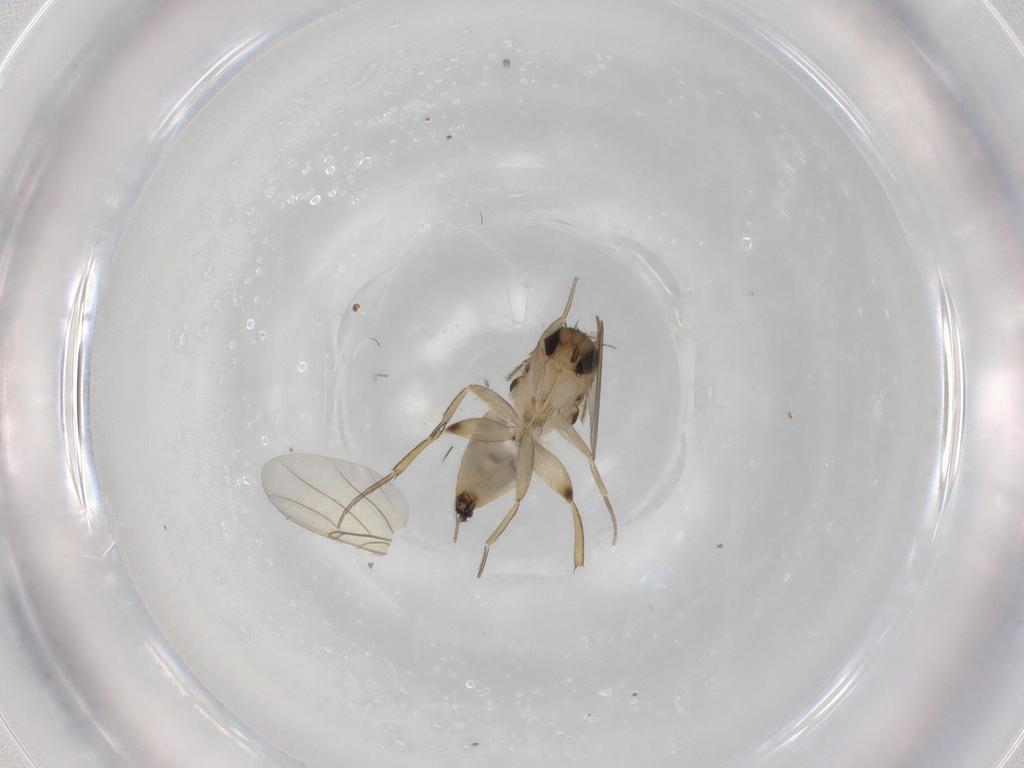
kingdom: Animalia
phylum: Arthropoda
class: Insecta
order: Diptera
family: Phoridae
